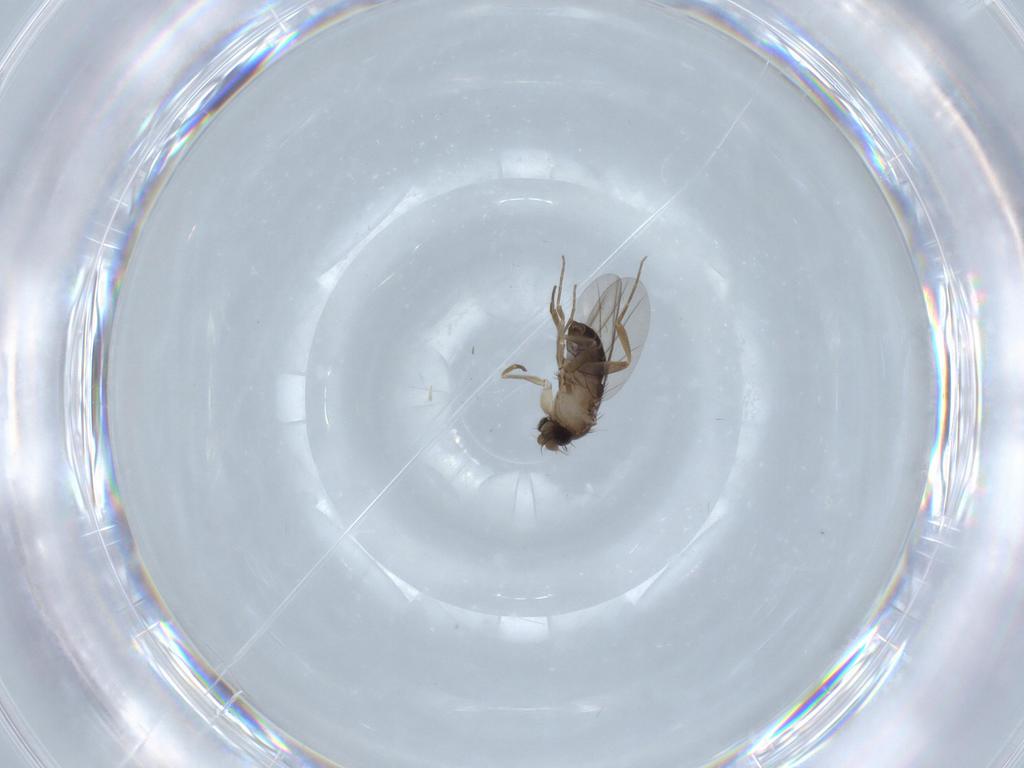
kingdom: Animalia
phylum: Arthropoda
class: Insecta
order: Diptera
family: Phoridae
